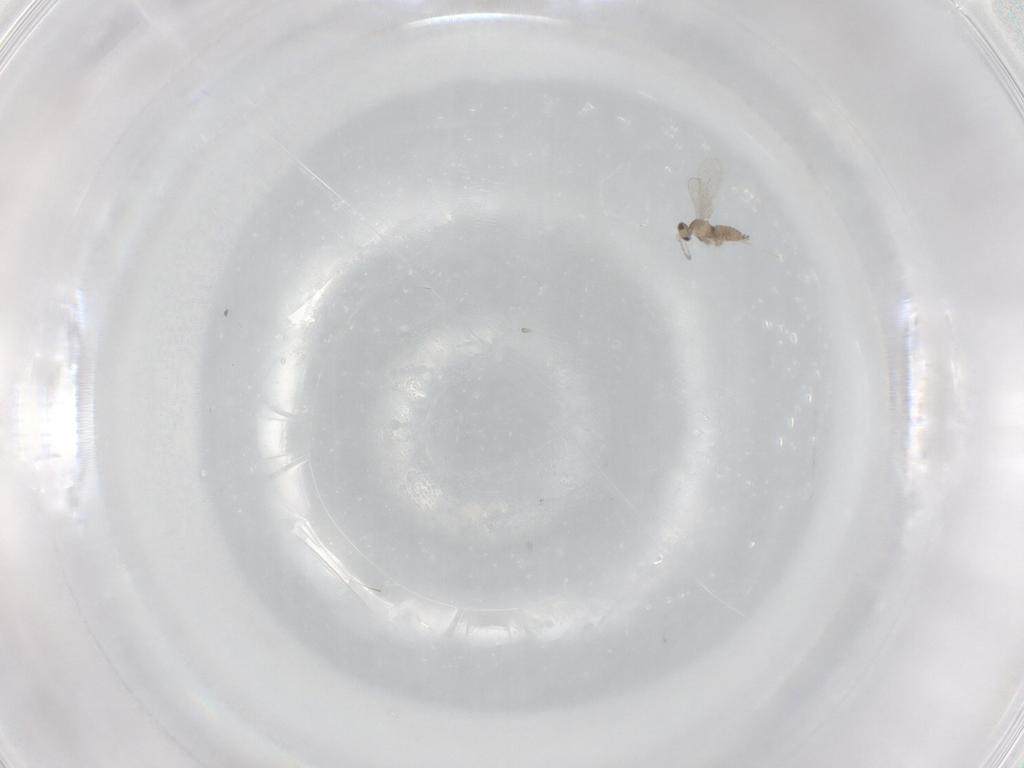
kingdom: Animalia
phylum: Arthropoda
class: Insecta
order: Diptera
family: Cecidomyiidae
